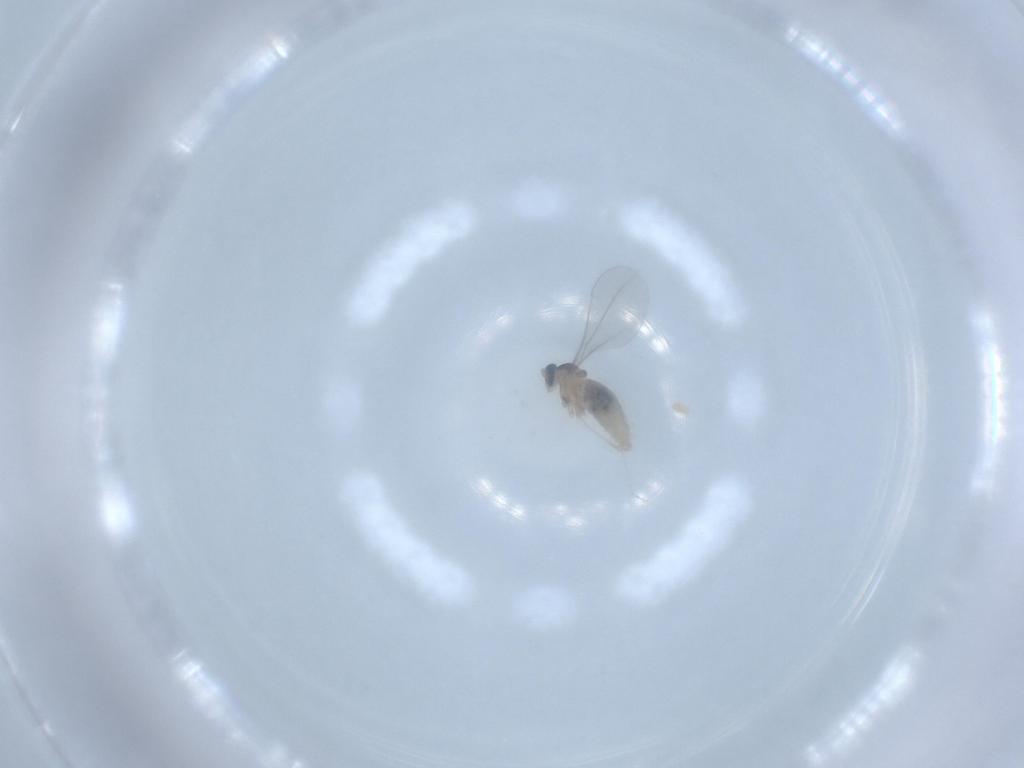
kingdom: Animalia
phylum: Arthropoda
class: Insecta
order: Diptera
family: Cecidomyiidae
